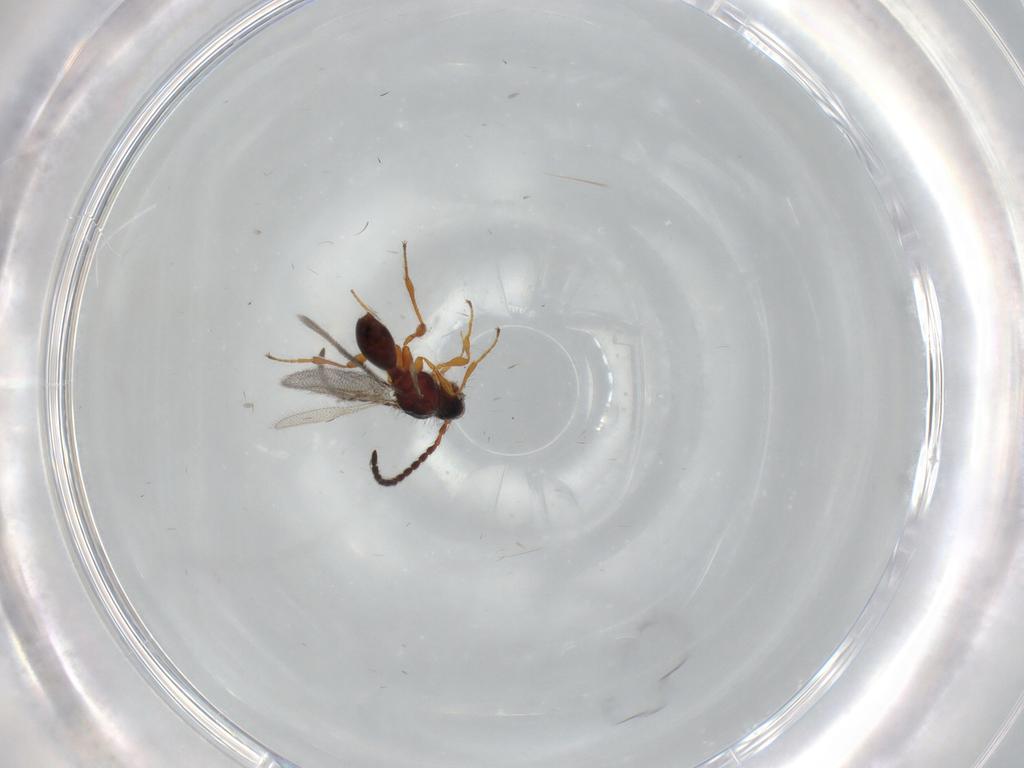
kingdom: Animalia
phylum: Arthropoda
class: Insecta
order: Hymenoptera
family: Diapriidae
